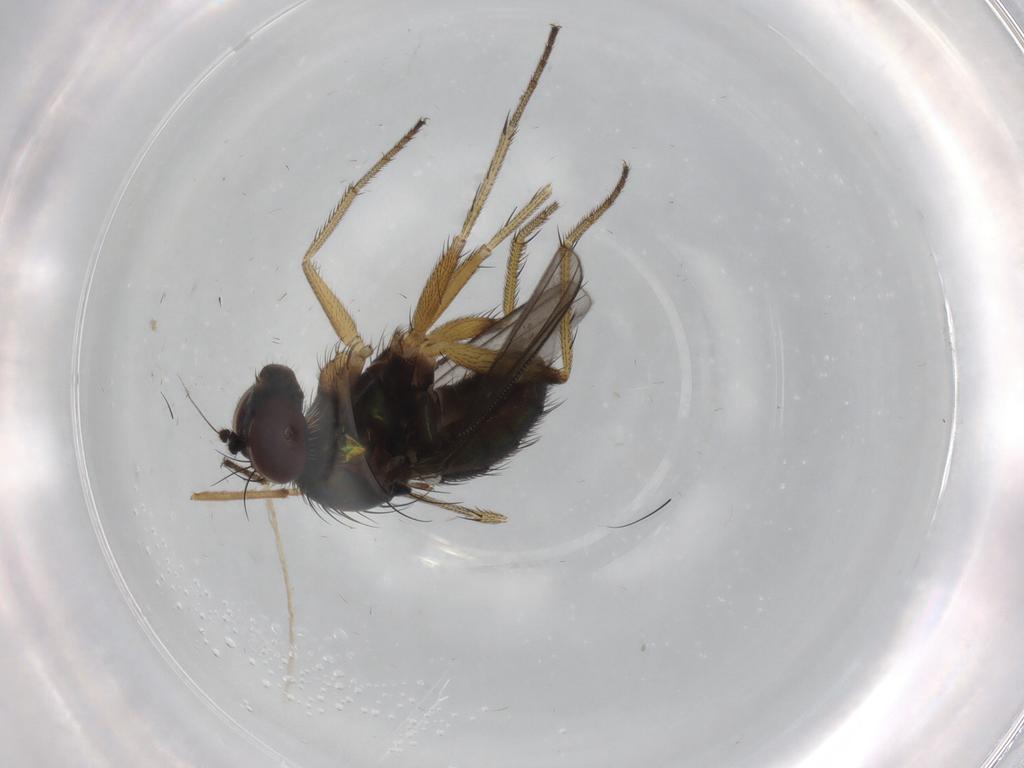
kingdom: Animalia
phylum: Arthropoda
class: Insecta
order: Diptera
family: Dolichopodidae
